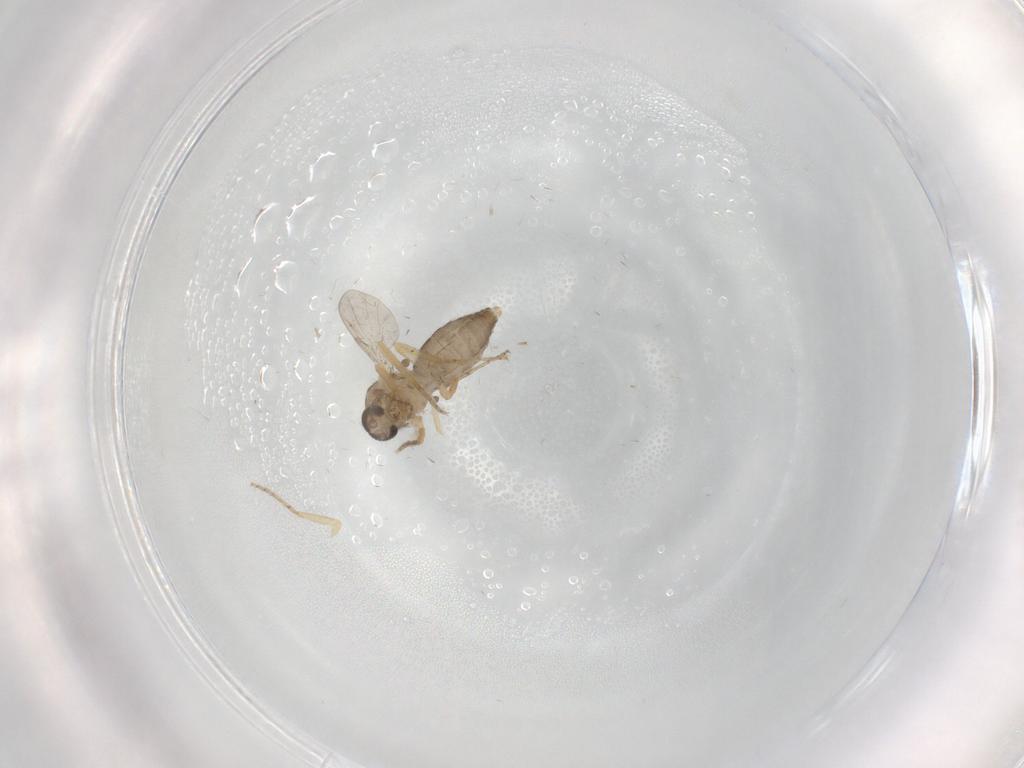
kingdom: Animalia
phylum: Arthropoda
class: Insecta
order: Diptera
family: Ceratopogonidae
